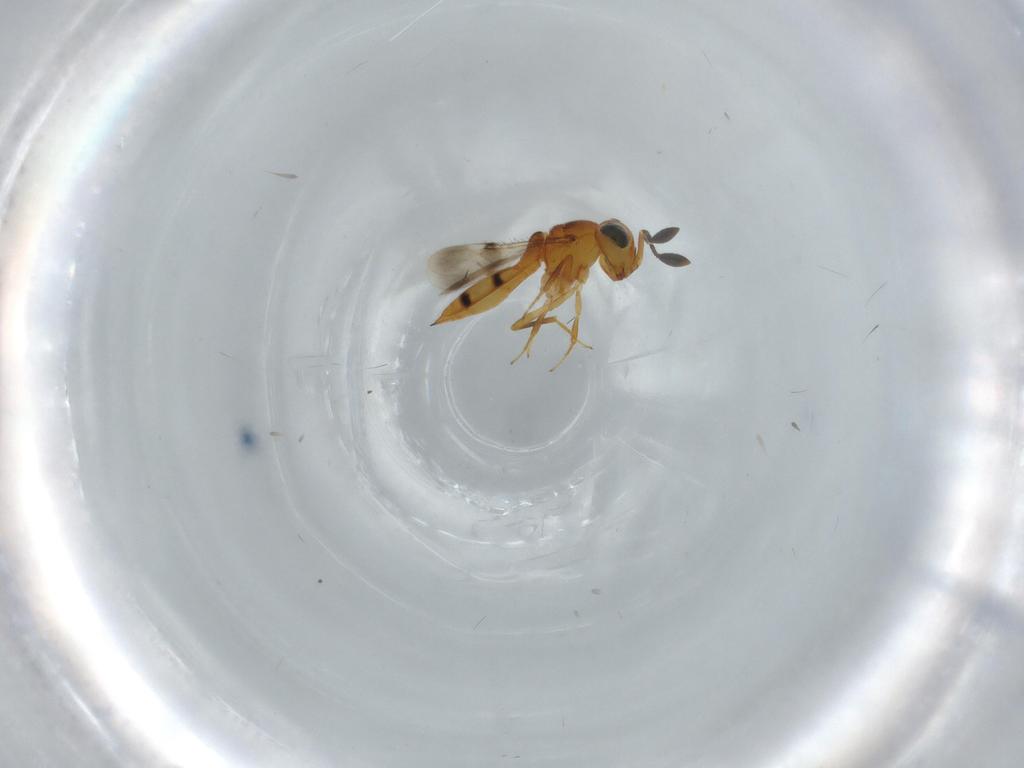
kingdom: Animalia
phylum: Arthropoda
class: Insecta
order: Hymenoptera
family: Scelionidae
